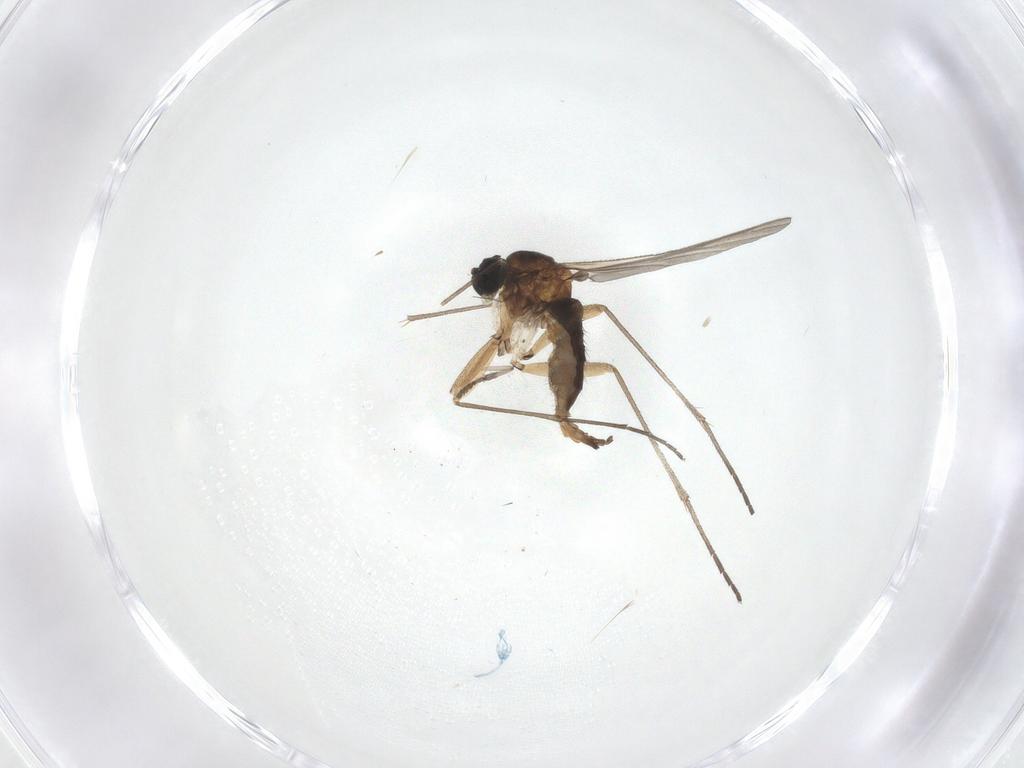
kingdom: Animalia
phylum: Arthropoda
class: Insecta
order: Diptera
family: Sciaridae
